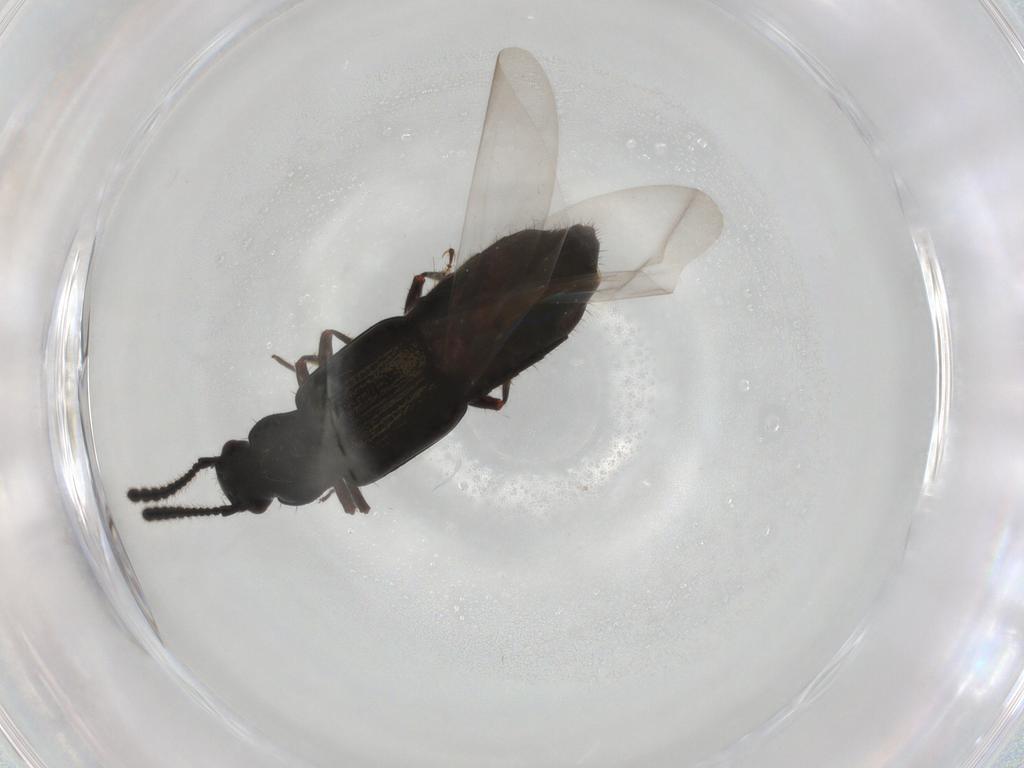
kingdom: Animalia
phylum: Arthropoda
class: Insecta
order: Coleoptera
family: Staphylinidae
